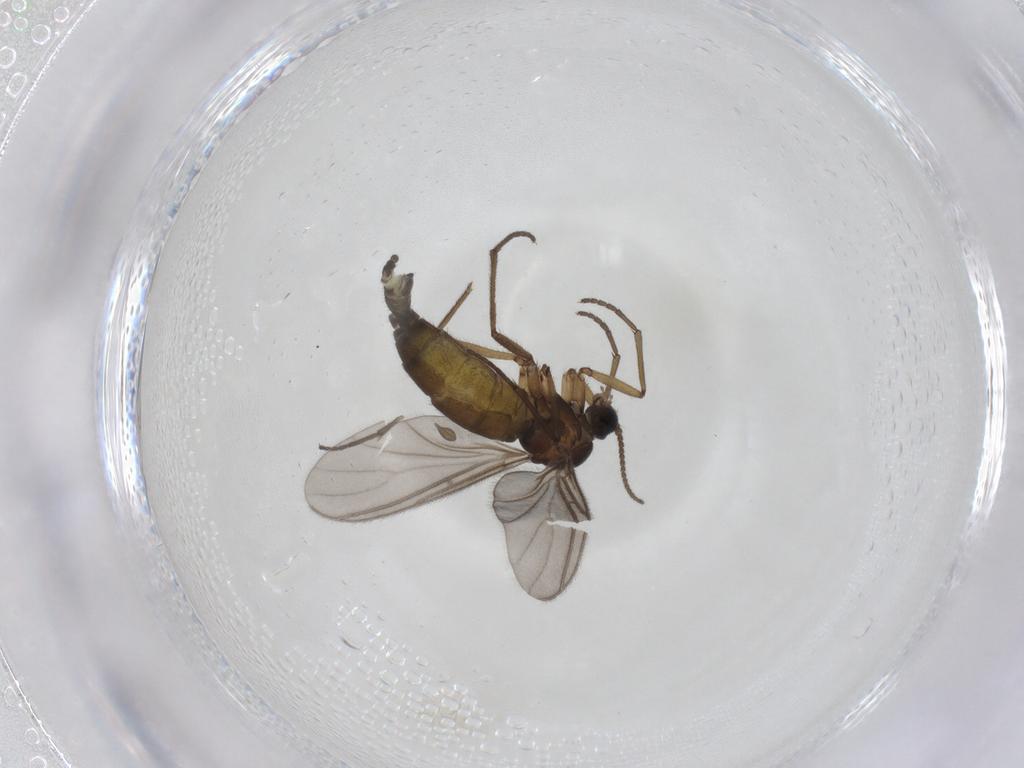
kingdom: Animalia
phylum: Arthropoda
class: Insecta
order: Diptera
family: Sciaridae
